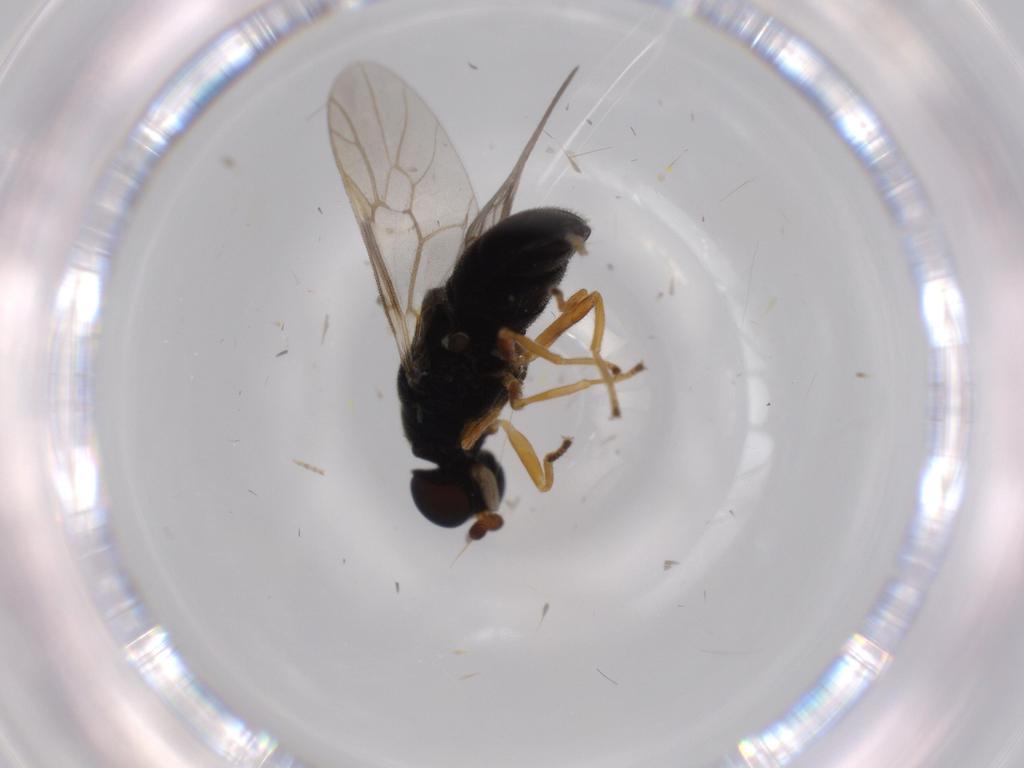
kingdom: Animalia
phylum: Arthropoda
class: Insecta
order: Diptera
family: Stratiomyidae
